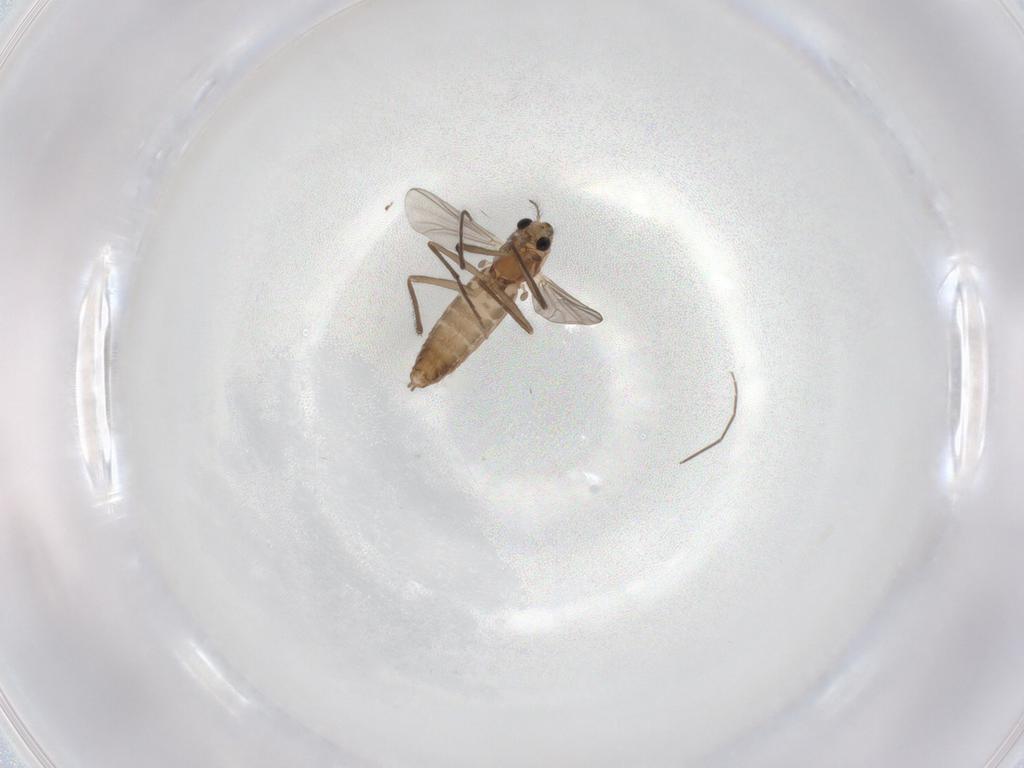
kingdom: Animalia
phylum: Arthropoda
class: Insecta
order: Diptera
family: Chironomidae
